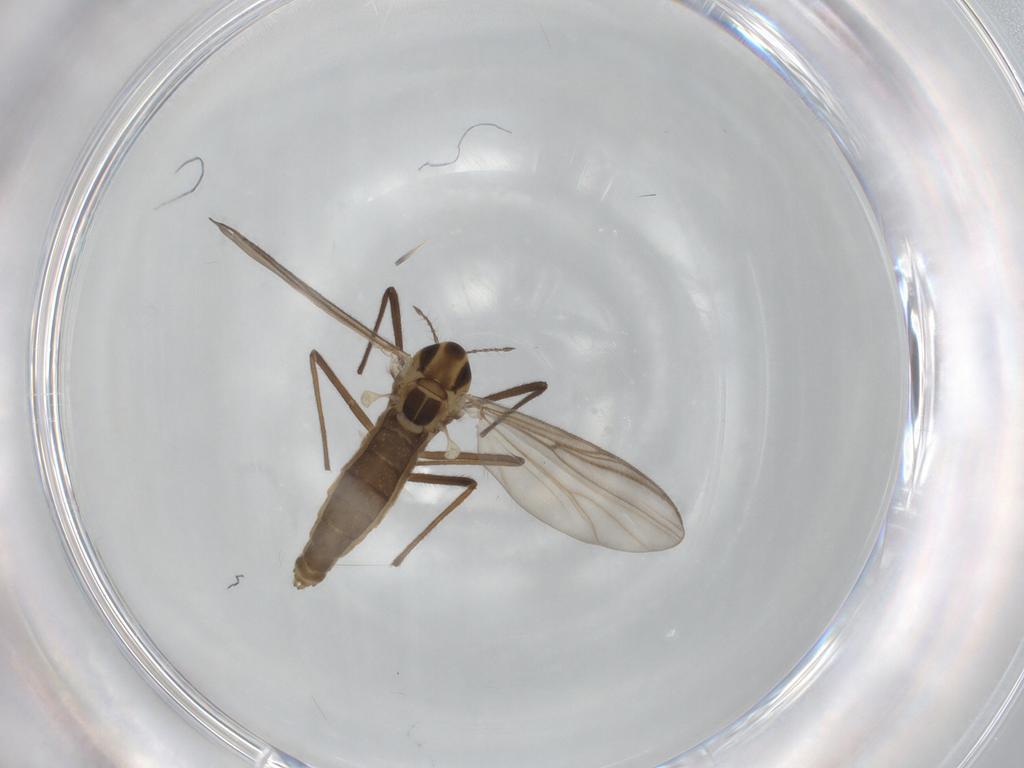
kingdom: Animalia
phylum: Arthropoda
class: Insecta
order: Diptera
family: Chironomidae
